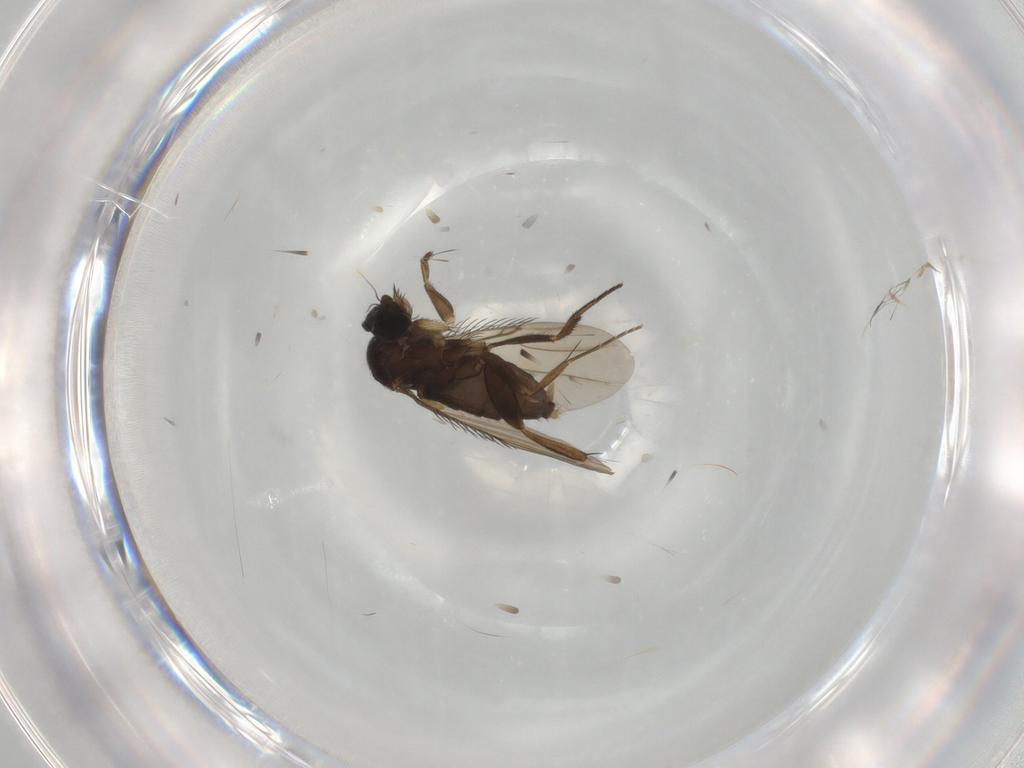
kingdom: Animalia
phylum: Arthropoda
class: Insecta
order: Diptera
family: Phoridae
